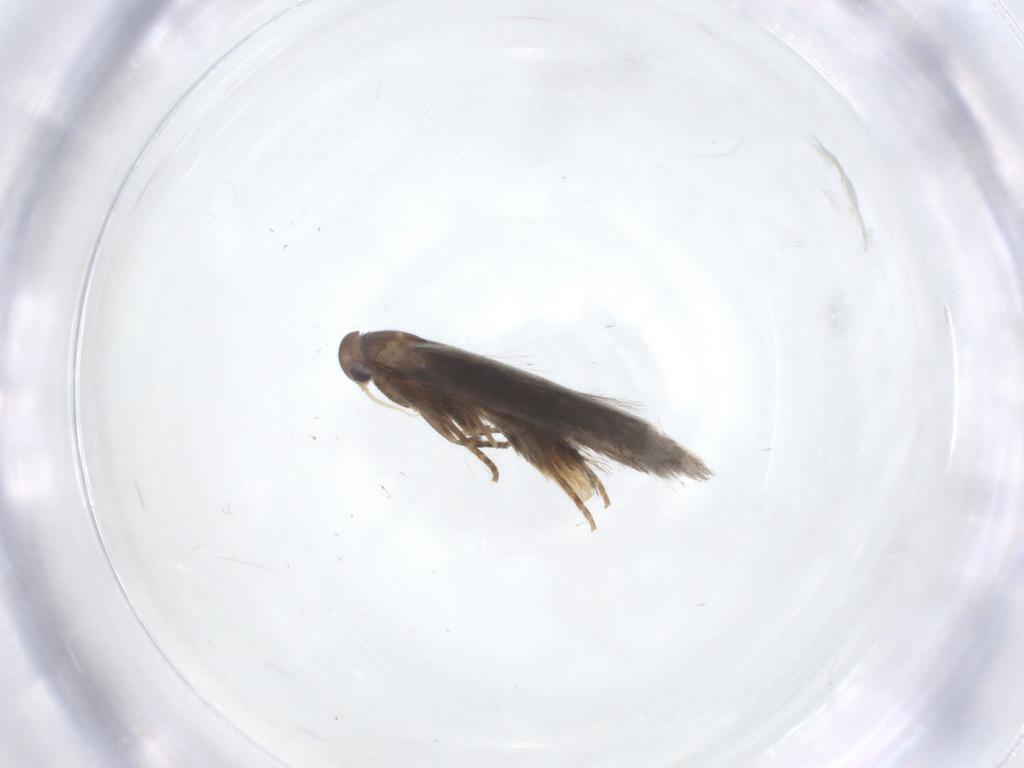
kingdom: Animalia
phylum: Arthropoda
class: Insecta
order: Lepidoptera
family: Elachistidae
